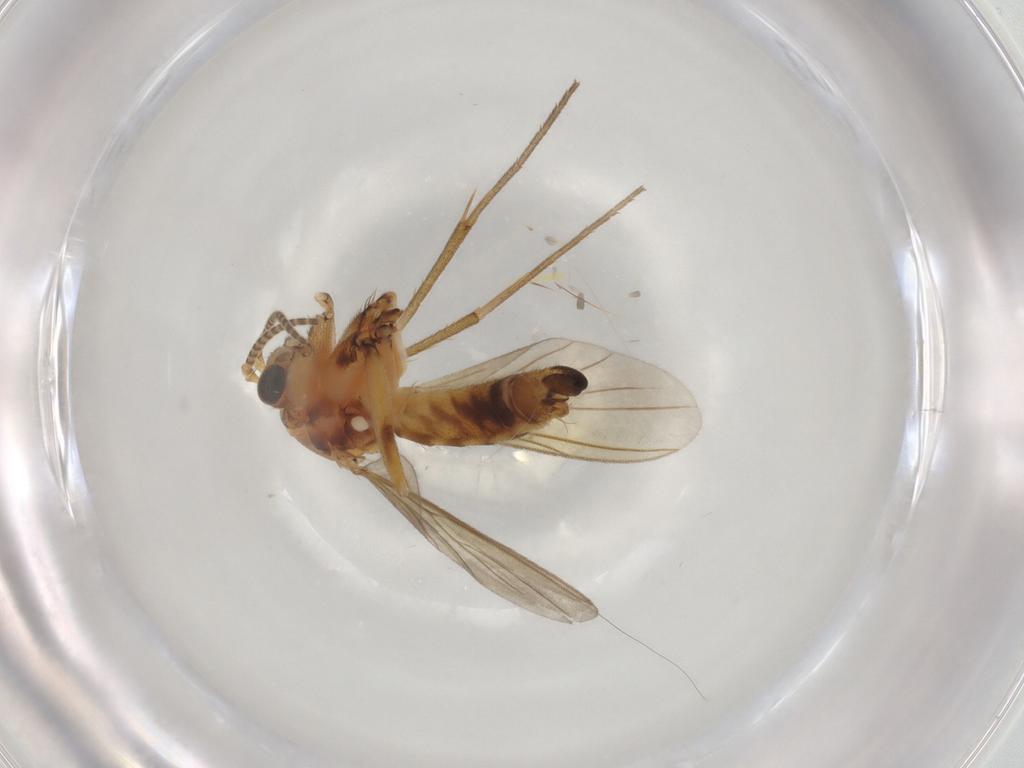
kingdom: Animalia
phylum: Arthropoda
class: Insecta
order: Diptera
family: Mycetophilidae
